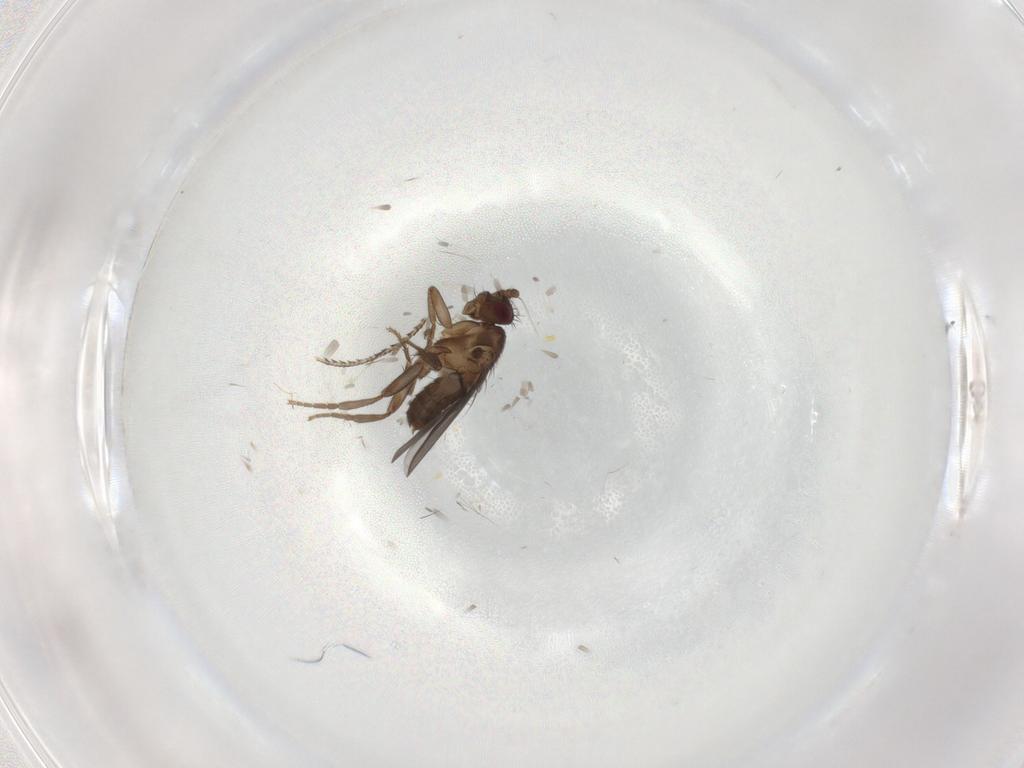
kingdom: Animalia
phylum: Arthropoda
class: Insecta
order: Diptera
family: Sphaeroceridae
